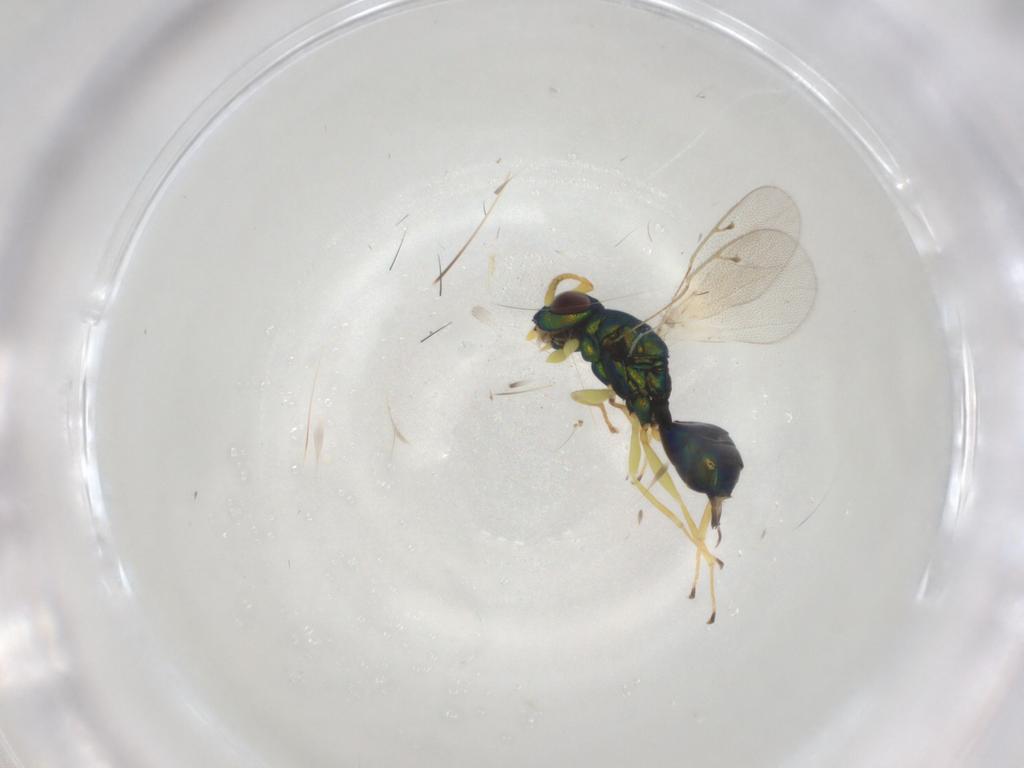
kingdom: Animalia
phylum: Arthropoda
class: Insecta
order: Hymenoptera
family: Pteromalidae
